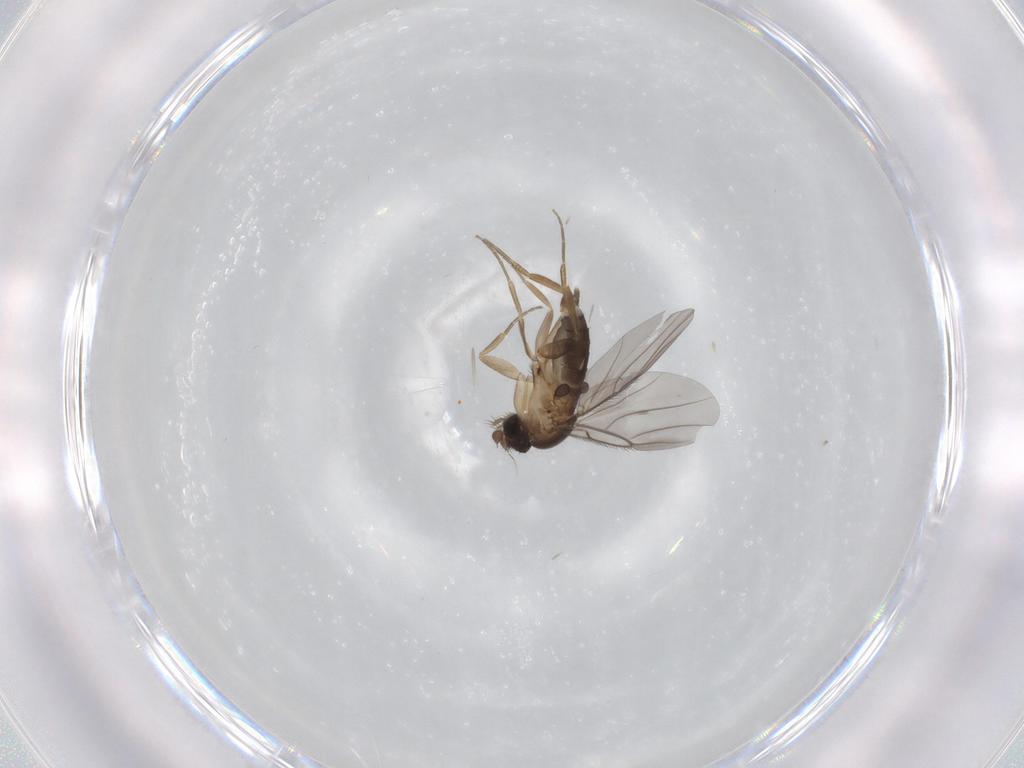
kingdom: Animalia
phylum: Arthropoda
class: Insecta
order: Diptera
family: Phoridae
